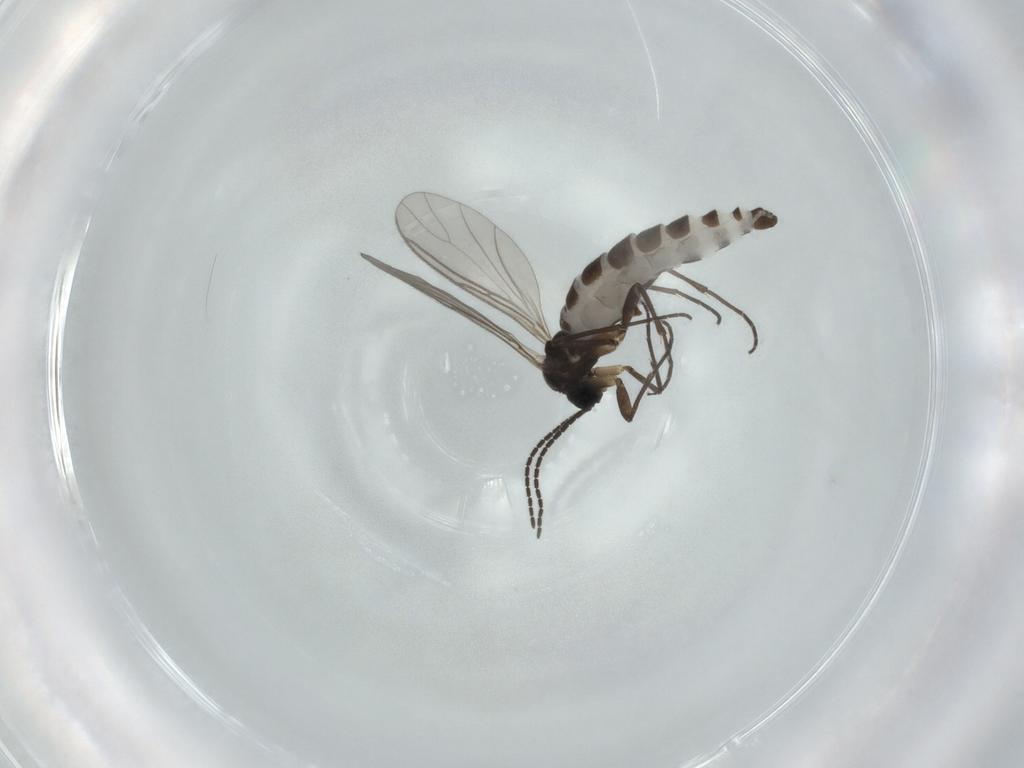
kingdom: Animalia
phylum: Arthropoda
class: Insecta
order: Diptera
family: Sciaridae
